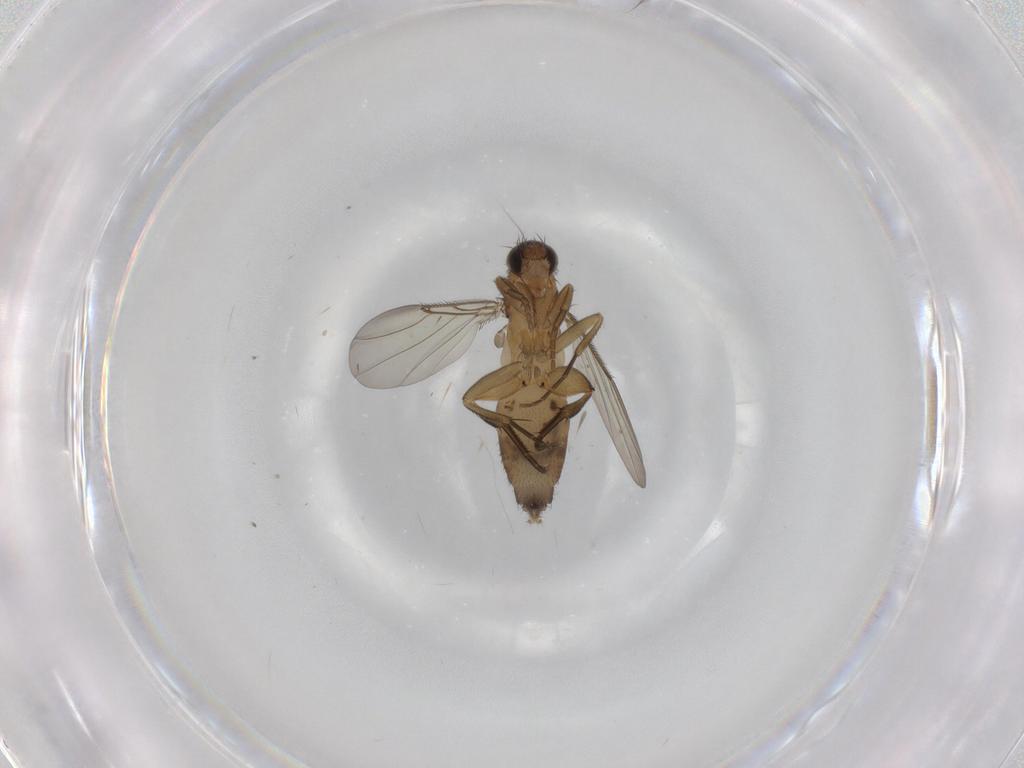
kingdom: Animalia
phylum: Arthropoda
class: Insecta
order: Diptera
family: Phoridae
